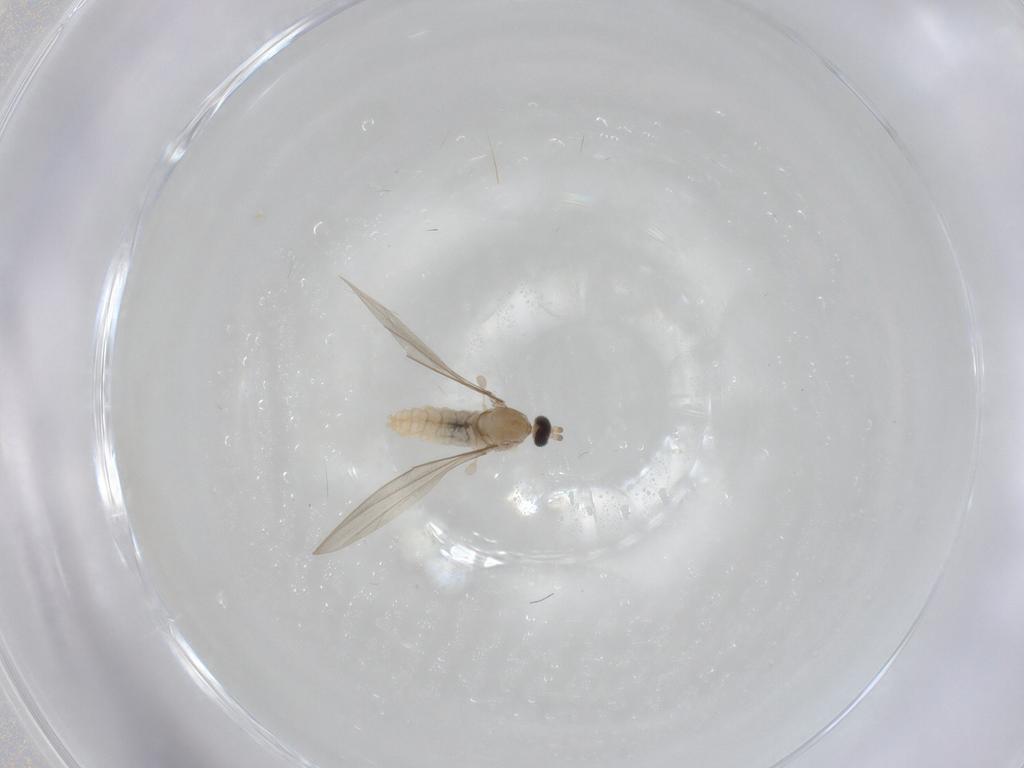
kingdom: Animalia
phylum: Arthropoda
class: Insecta
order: Diptera
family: Cecidomyiidae
